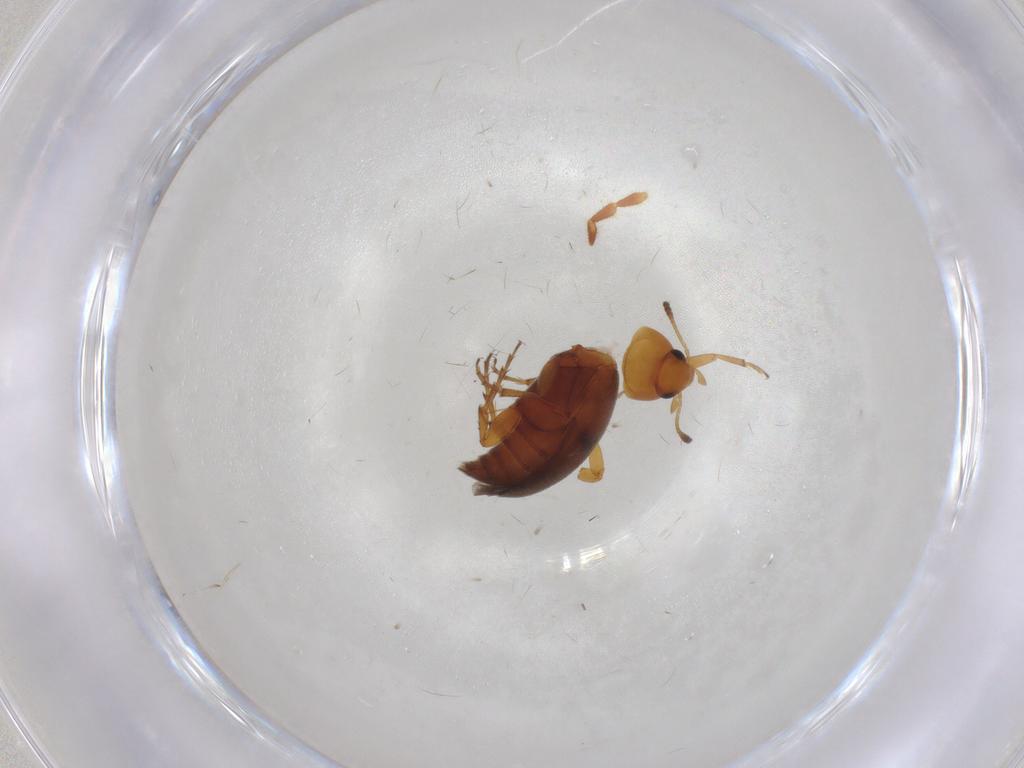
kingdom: Animalia
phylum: Arthropoda
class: Insecta
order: Coleoptera
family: Scraptiidae
